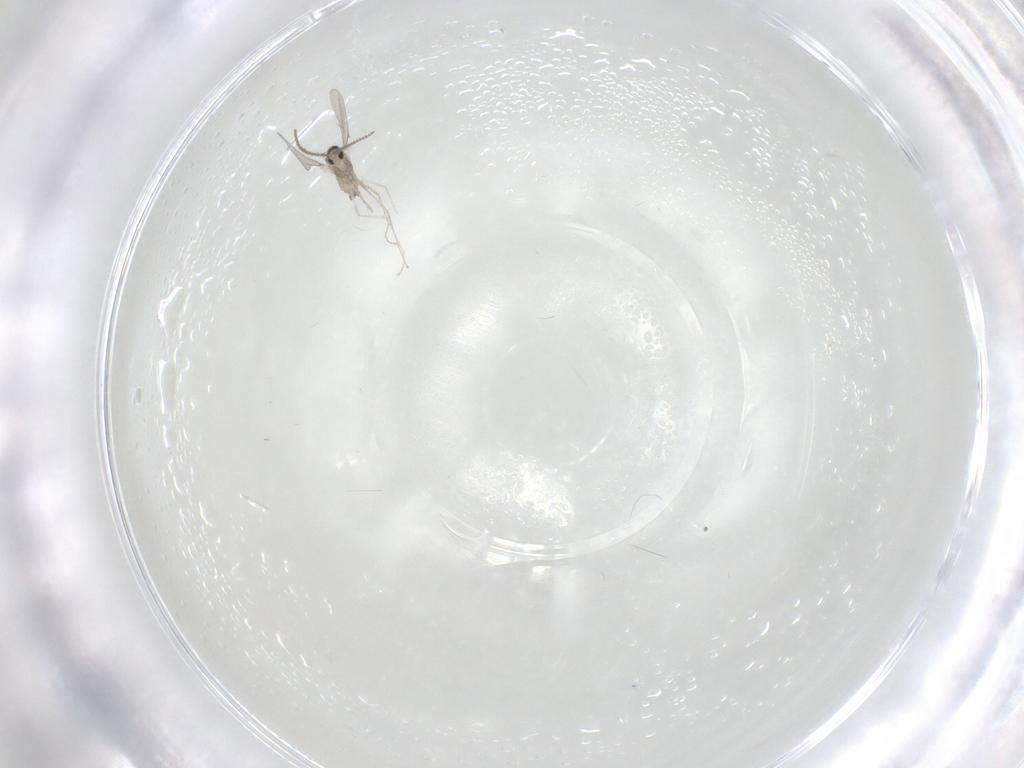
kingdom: Animalia
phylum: Arthropoda
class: Insecta
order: Diptera
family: Cecidomyiidae
